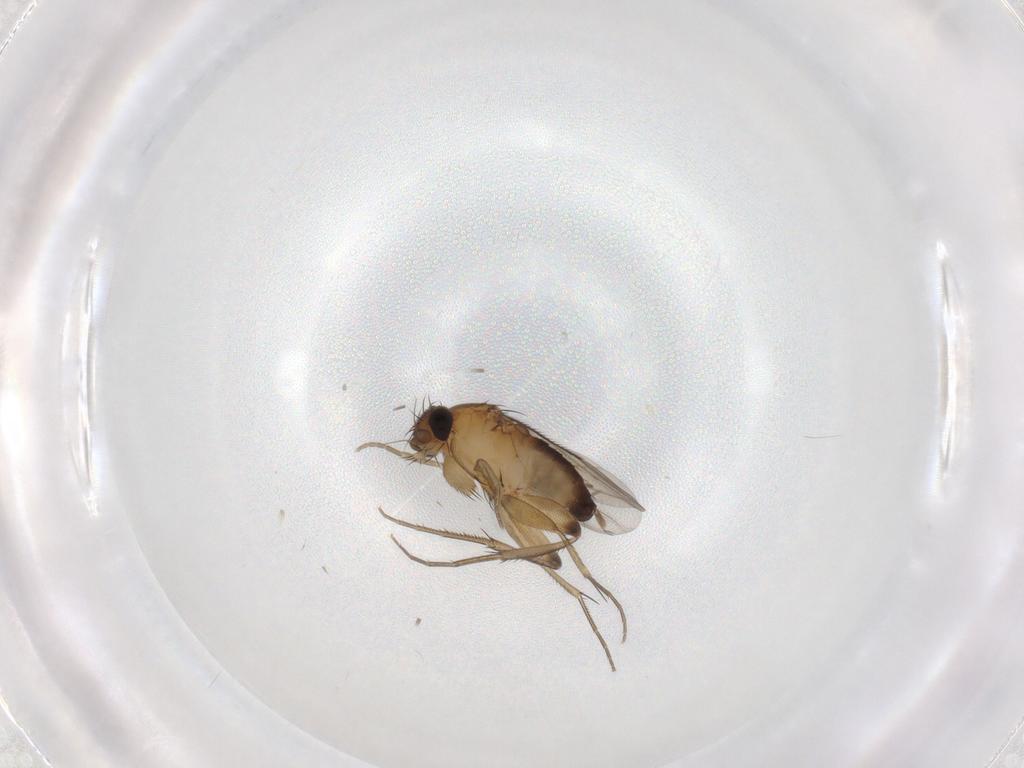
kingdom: Animalia
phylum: Arthropoda
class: Insecta
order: Diptera
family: Phoridae
